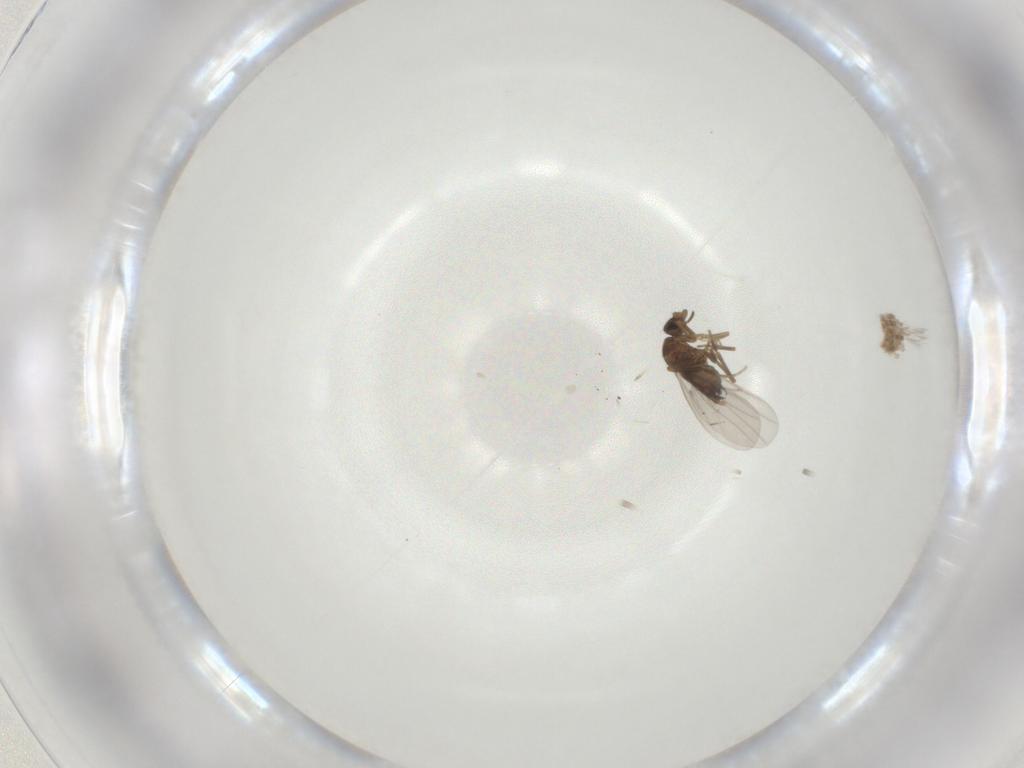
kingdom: Animalia
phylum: Arthropoda
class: Insecta
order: Diptera
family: Phoridae
